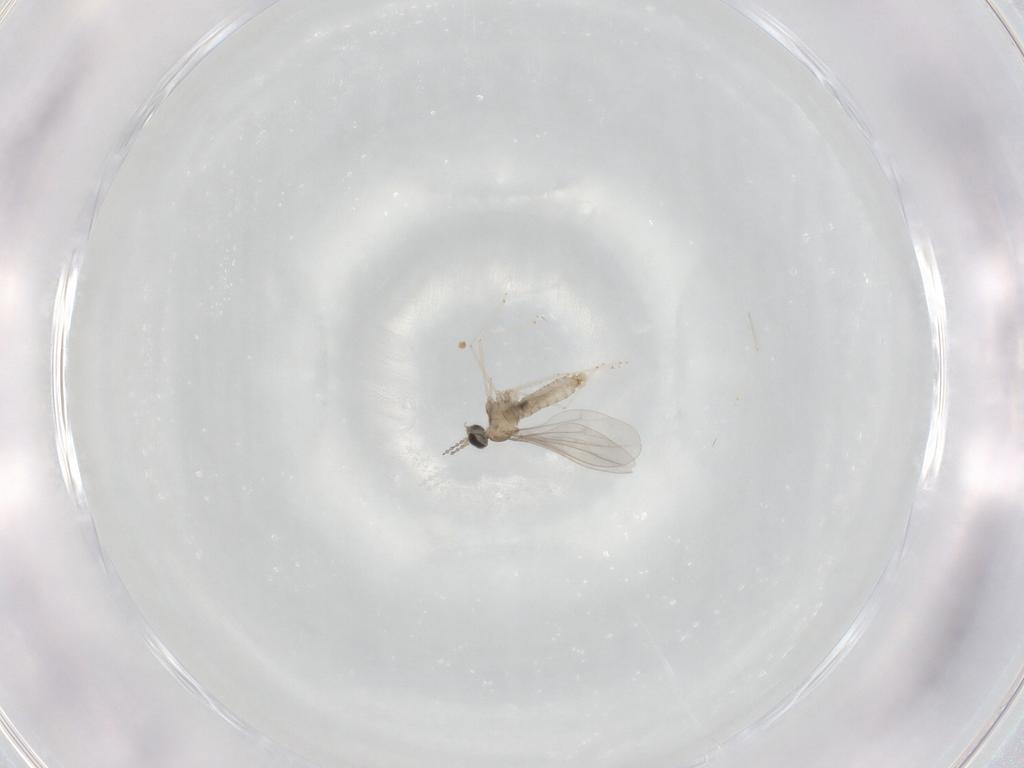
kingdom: Animalia
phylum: Arthropoda
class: Insecta
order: Diptera
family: Cecidomyiidae
